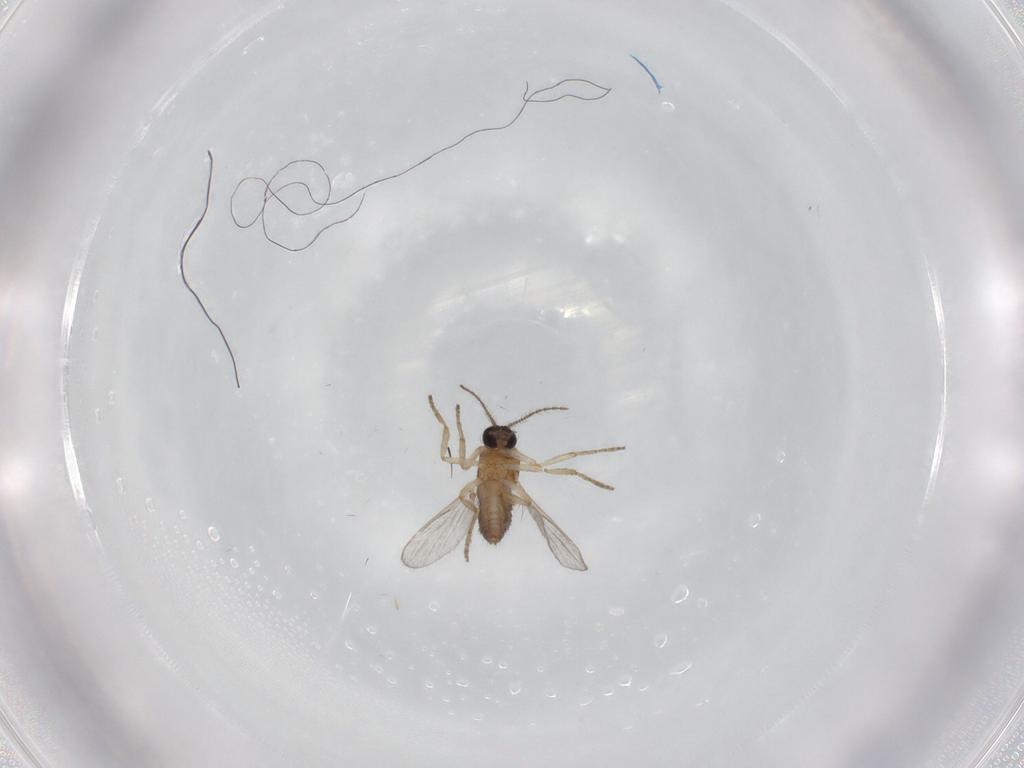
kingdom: Animalia
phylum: Arthropoda
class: Insecta
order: Diptera
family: Ceratopogonidae
